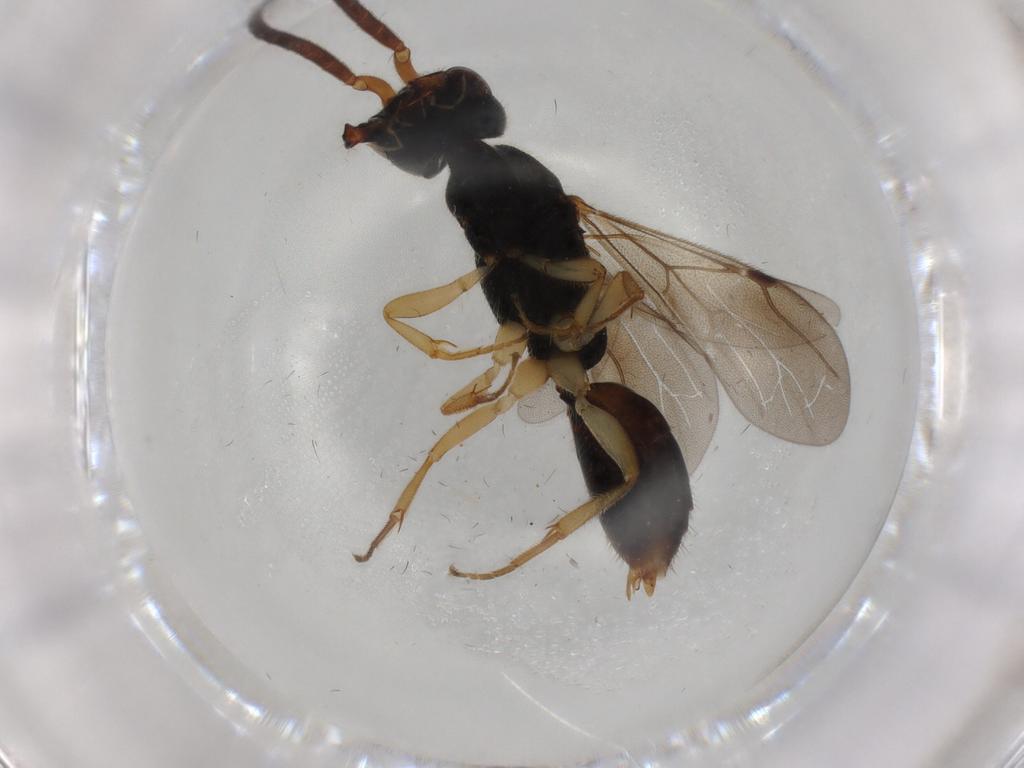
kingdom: Animalia
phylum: Arthropoda
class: Insecta
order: Hymenoptera
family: Bethylidae
